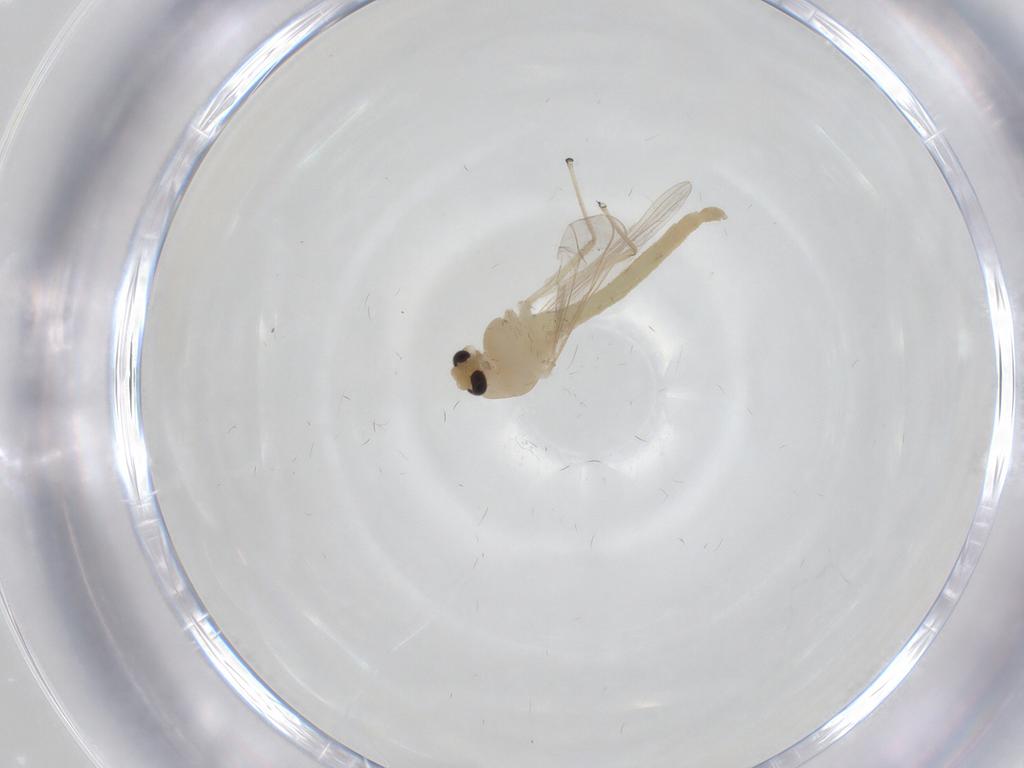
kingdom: Animalia
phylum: Arthropoda
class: Insecta
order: Diptera
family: Chironomidae
